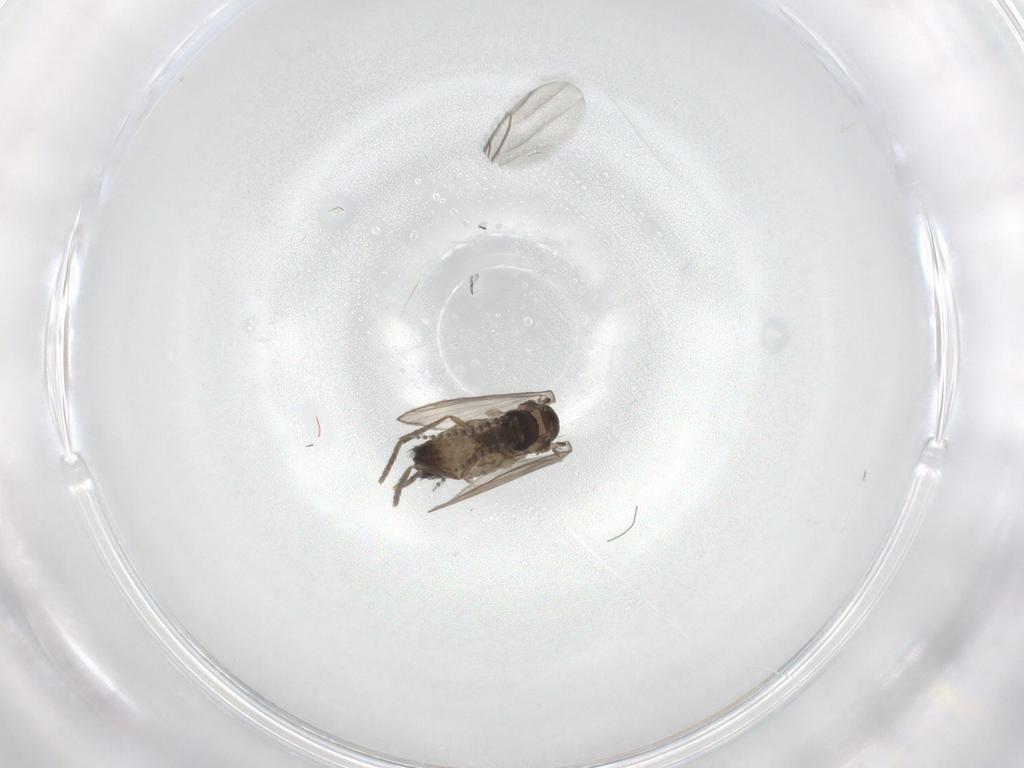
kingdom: Animalia
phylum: Arthropoda
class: Insecta
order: Diptera
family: Psychodidae
